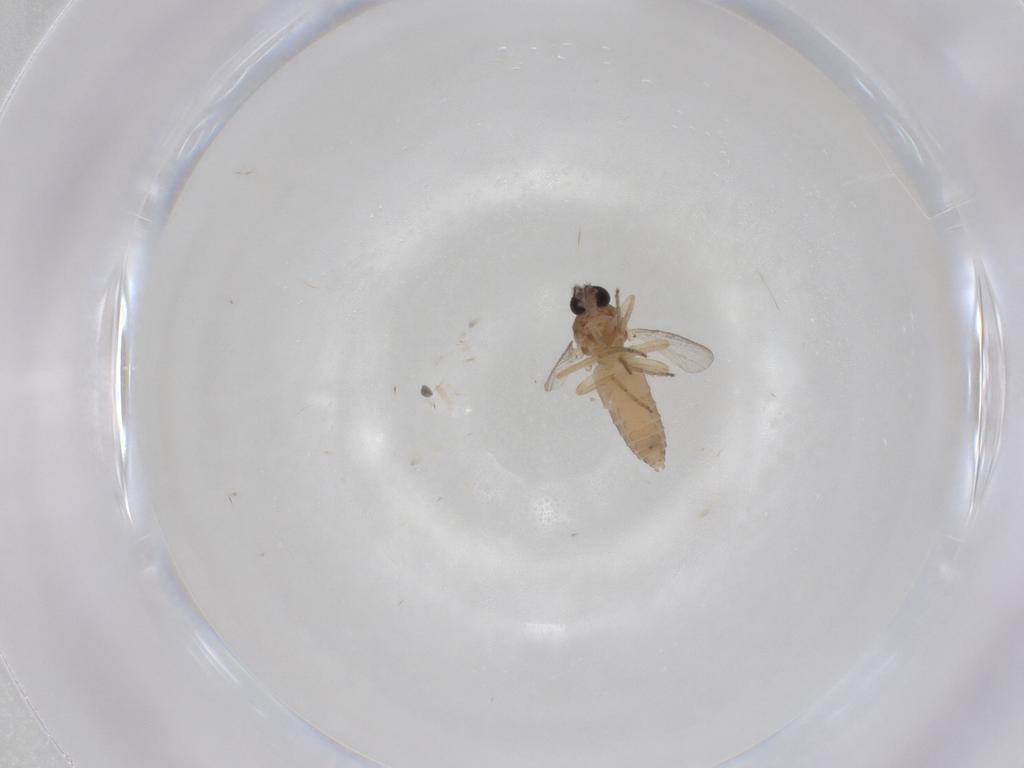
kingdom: Animalia
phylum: Arthropoda
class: Insecta
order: Diptera
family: Ceratopogonidae
